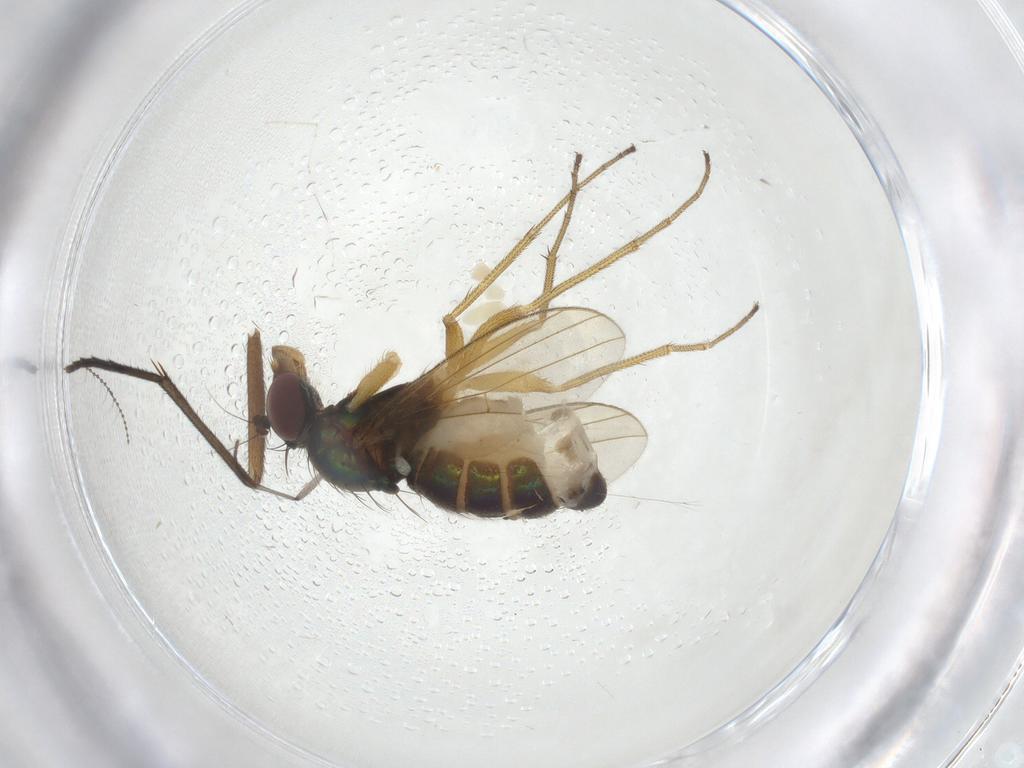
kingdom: Animalia
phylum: Arthropoda
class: Insecta
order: Diptera
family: Dolichopodidae
